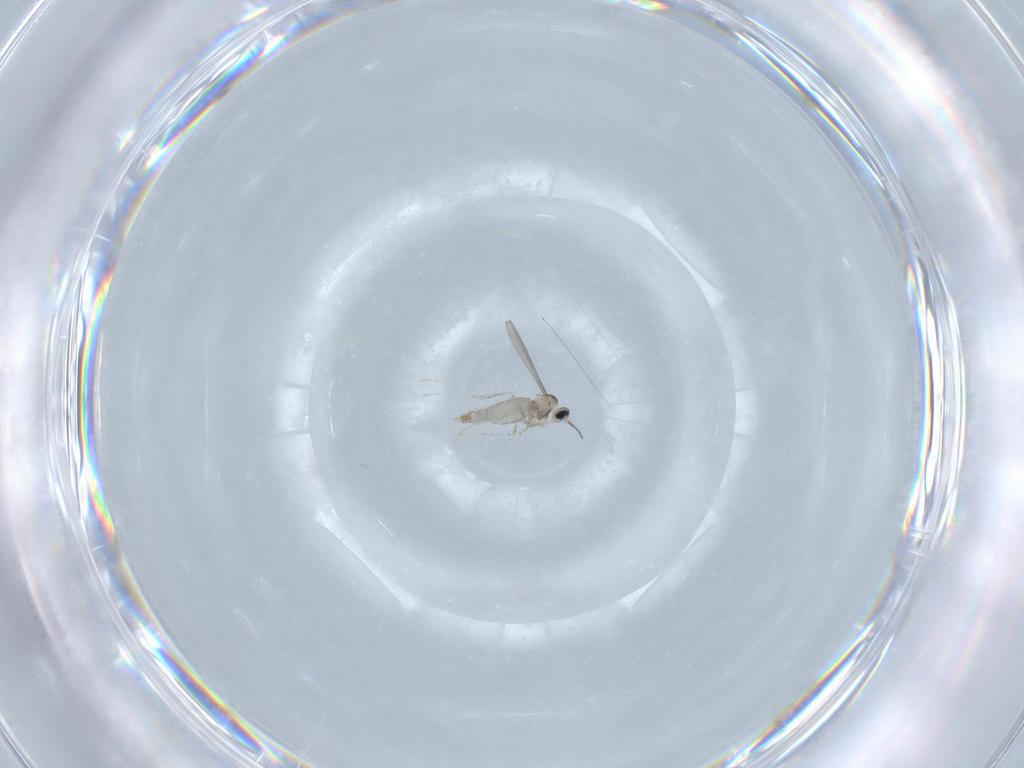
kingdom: Animalia
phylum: Arthropoda
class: Insecta
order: Diptera
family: Cecidomyiidae
